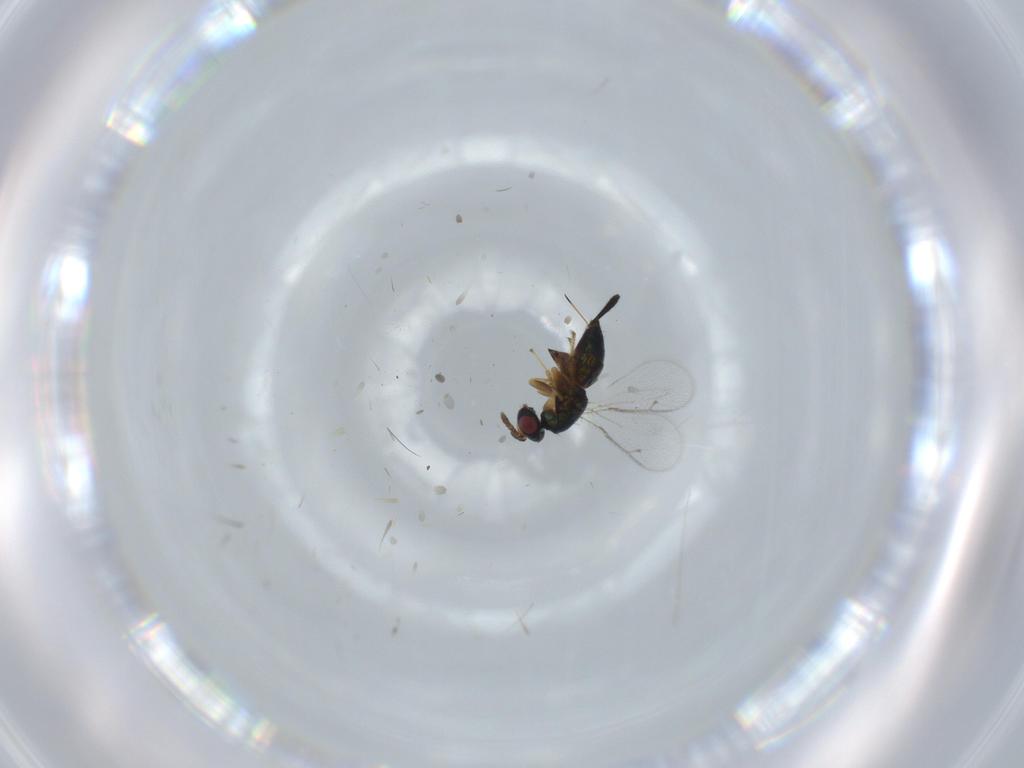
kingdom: Animalia
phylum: Arthropoda
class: Insecta
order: Hymenoptera
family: Torymidae
